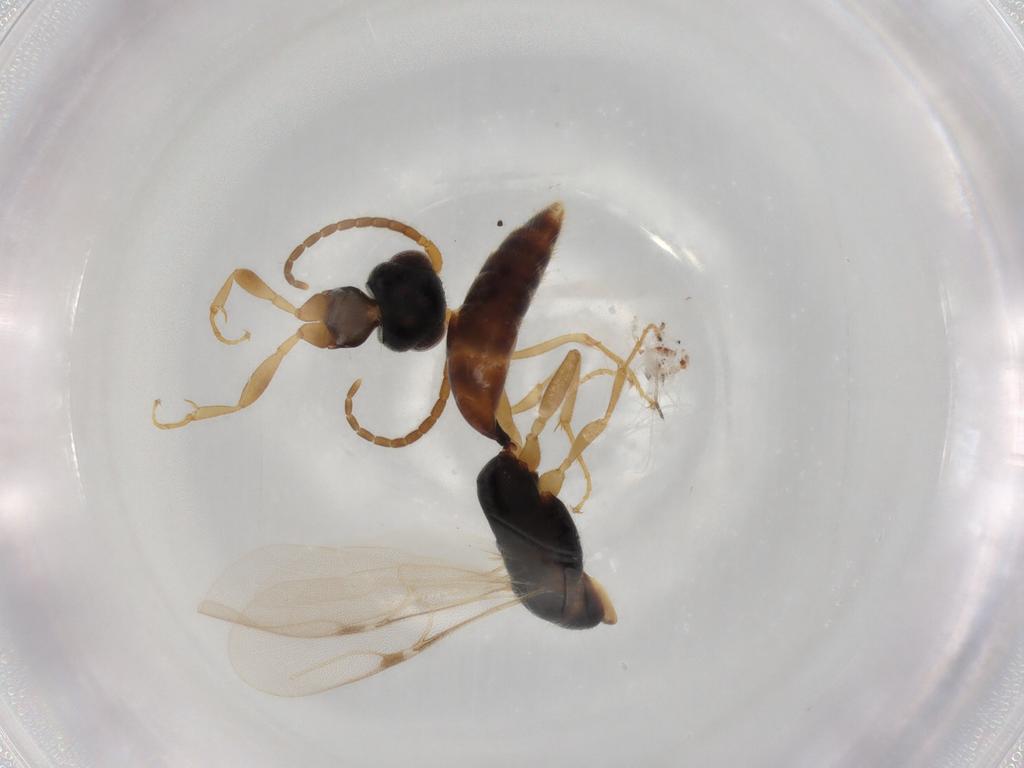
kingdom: Animalia
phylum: Arthropoda
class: Insecta
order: Hymenoptera
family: Bethylidae
